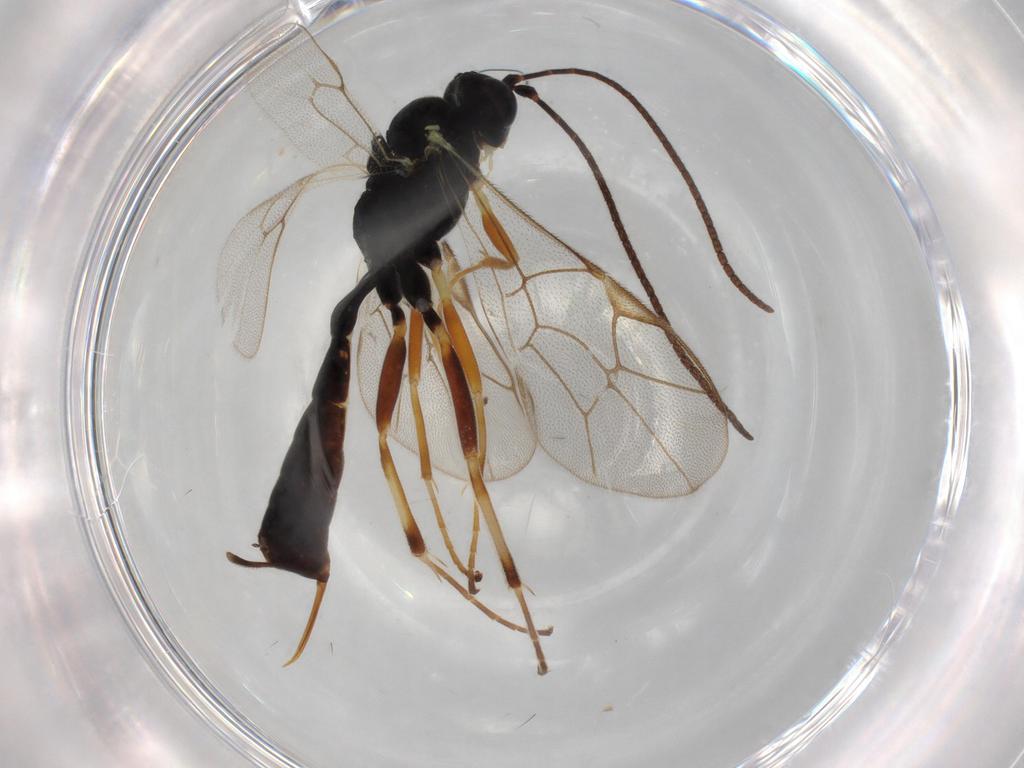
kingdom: Animalia
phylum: Arthropoda
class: Insecta
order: Hymenoptera
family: Ichneumonidae
